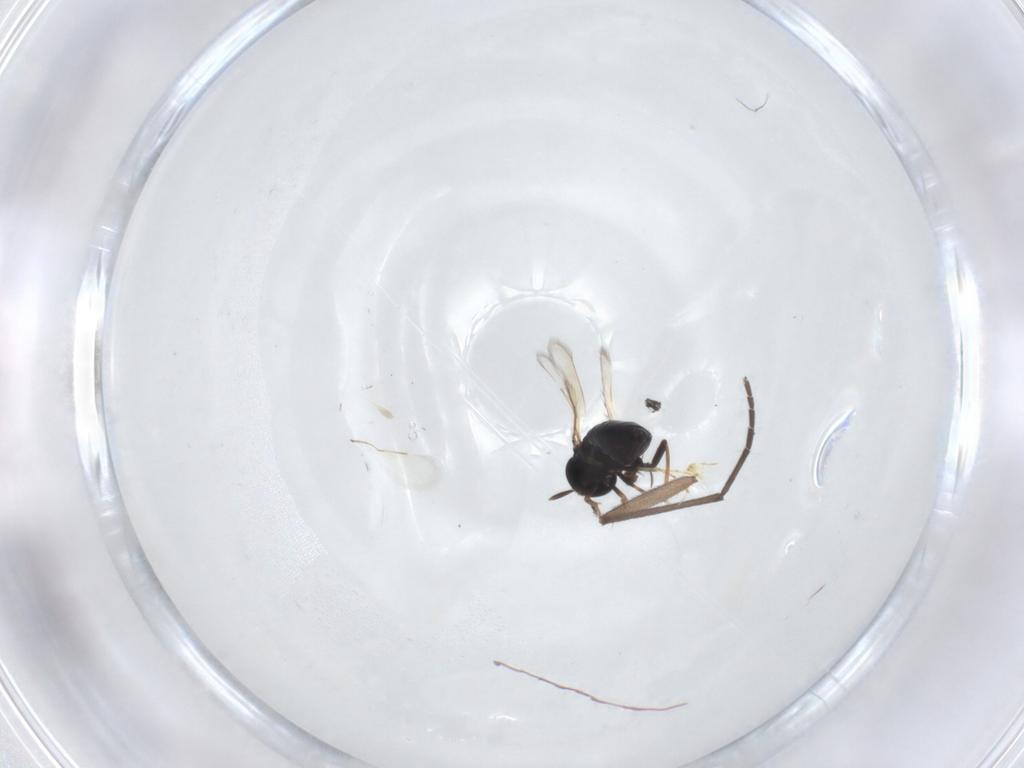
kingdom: Animalia
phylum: Arthropoda
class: Insecta
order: Diptera
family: Sciaridae
